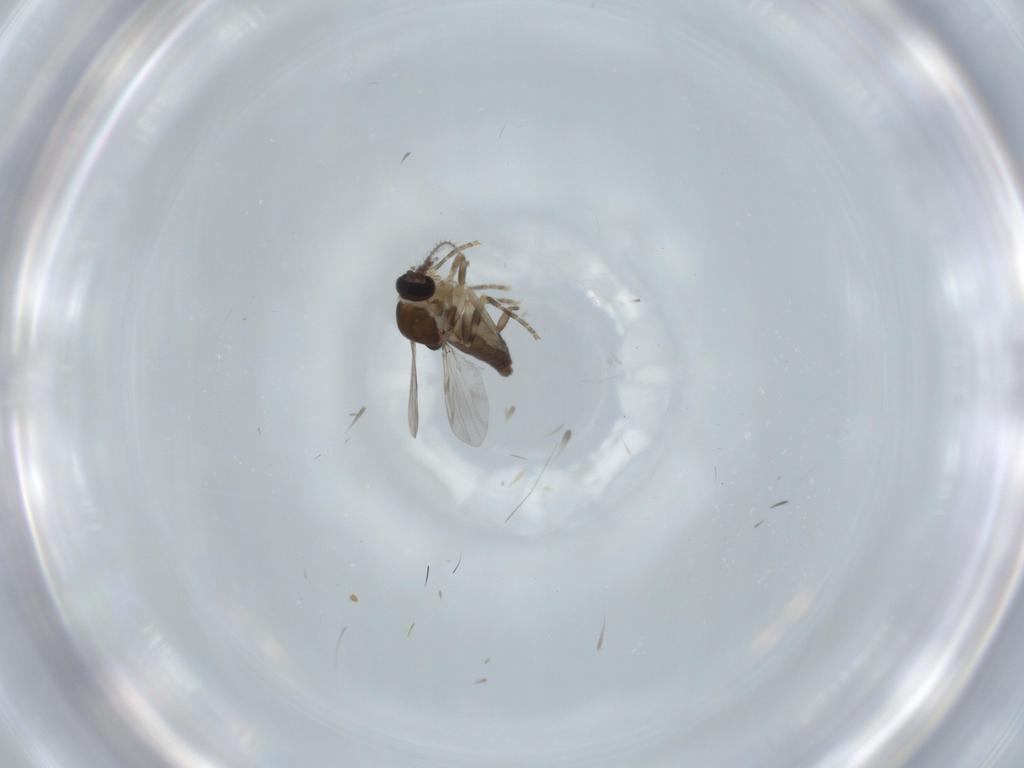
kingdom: Animalia
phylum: Arthropoda
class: Insecta
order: Diptera
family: Ceratopogonidae
